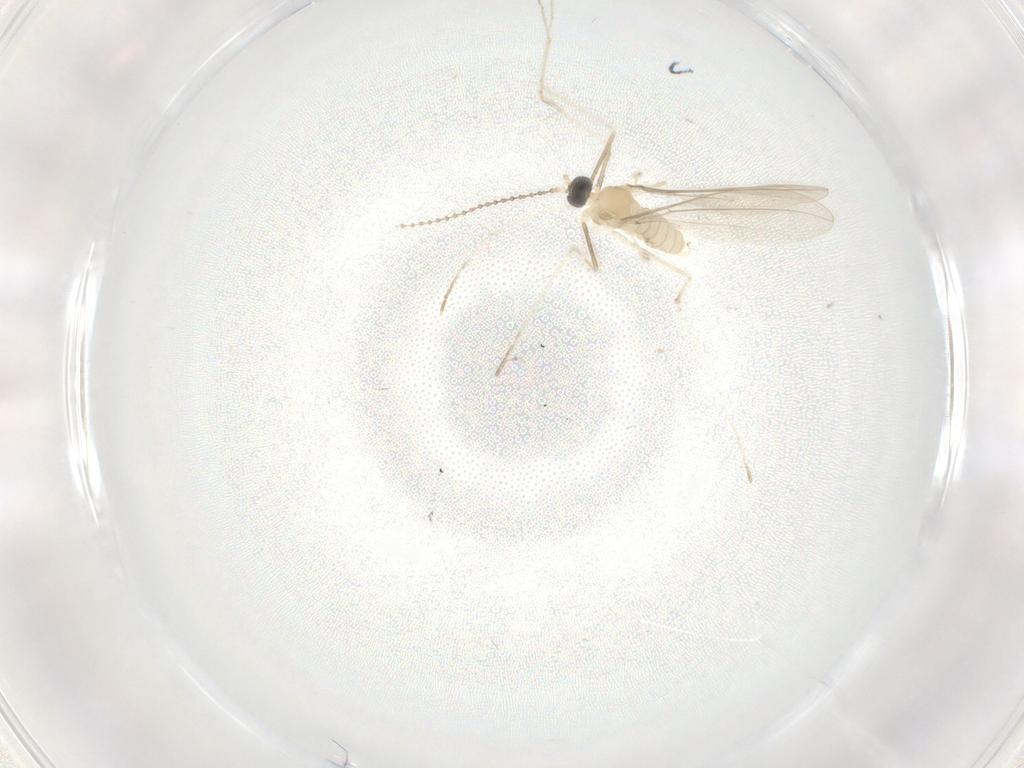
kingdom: Animalia
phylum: Arthropoda
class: Insecta
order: Diptera
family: Cecidomyiidae
